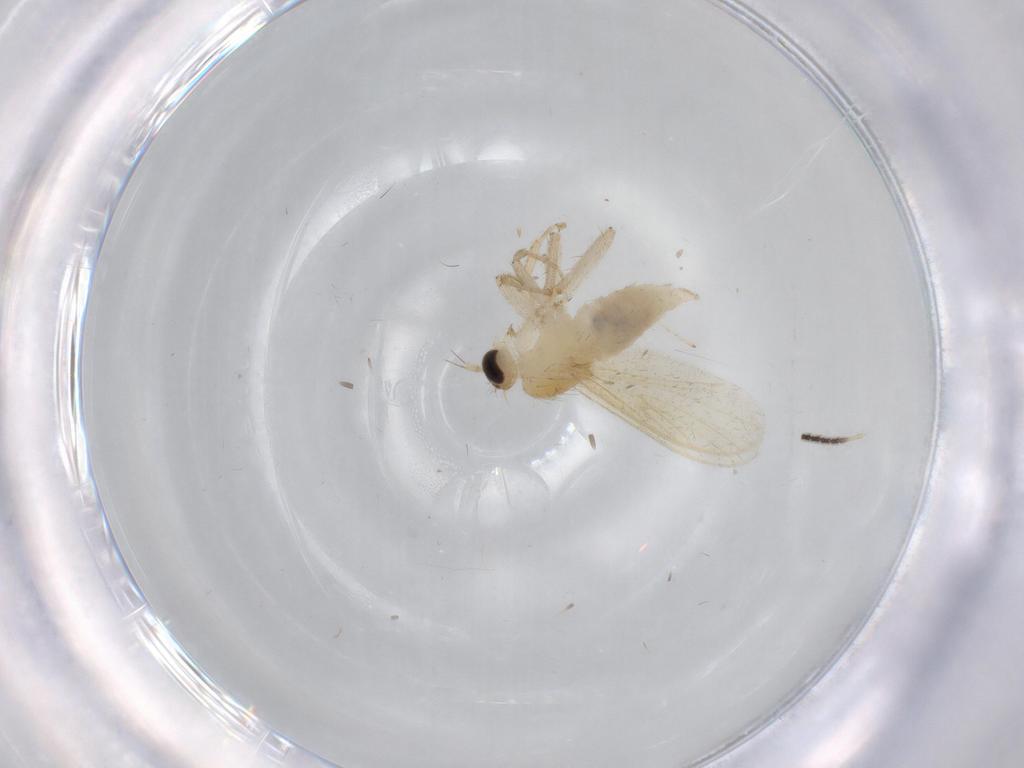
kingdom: Animalia
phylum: Arthropoda
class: Insecta
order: Diptera
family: Hybotidae
